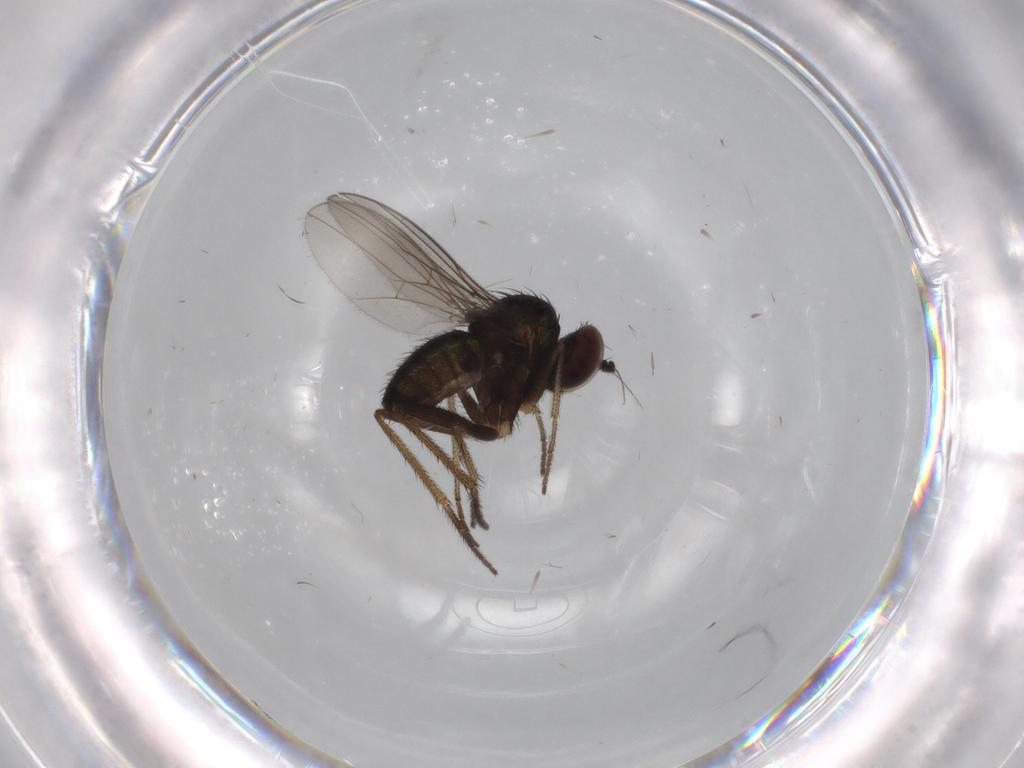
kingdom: Animalia
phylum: Arthropoda
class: Insecta
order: Diptera
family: Dolichopodidae
